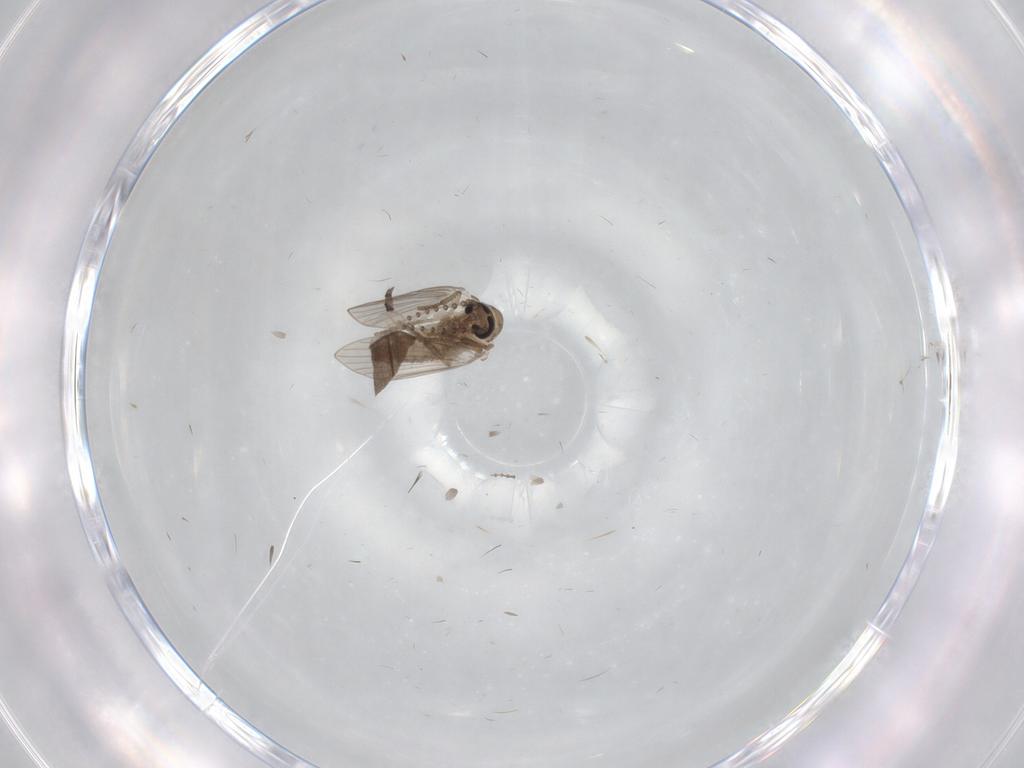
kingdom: Animalia
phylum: Arthropoda
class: Insecta
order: Diptera
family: Psychodidae
